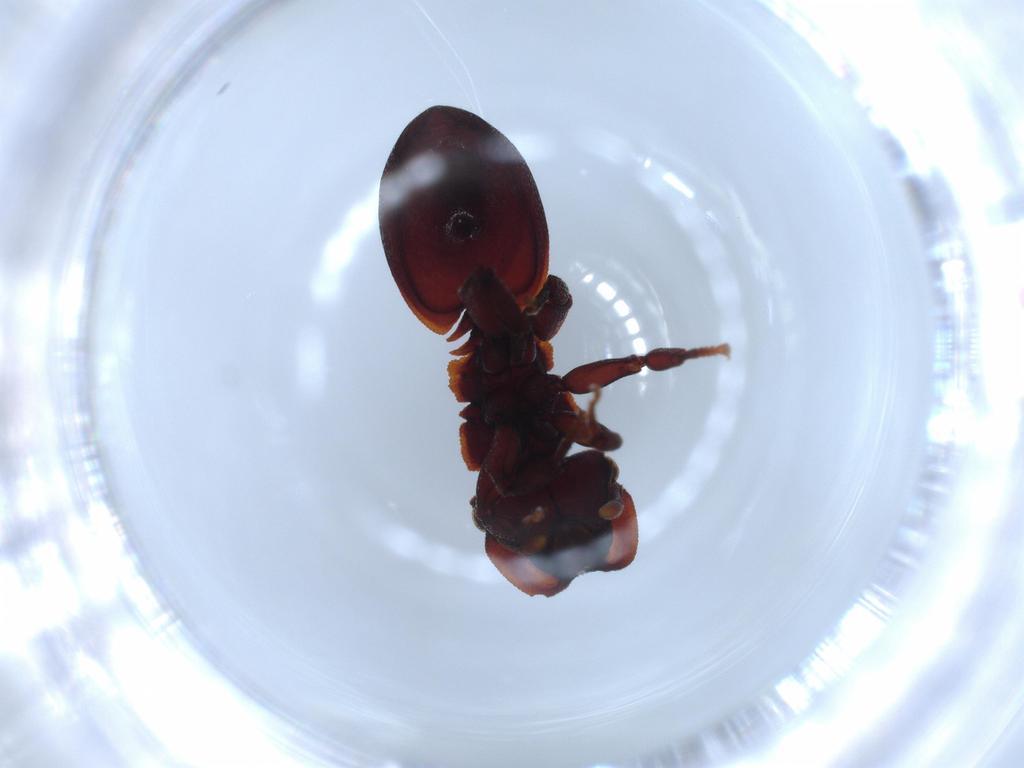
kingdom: Animalia
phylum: Arthropoda
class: Insecta
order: Hymenoptera
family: Formicidae
